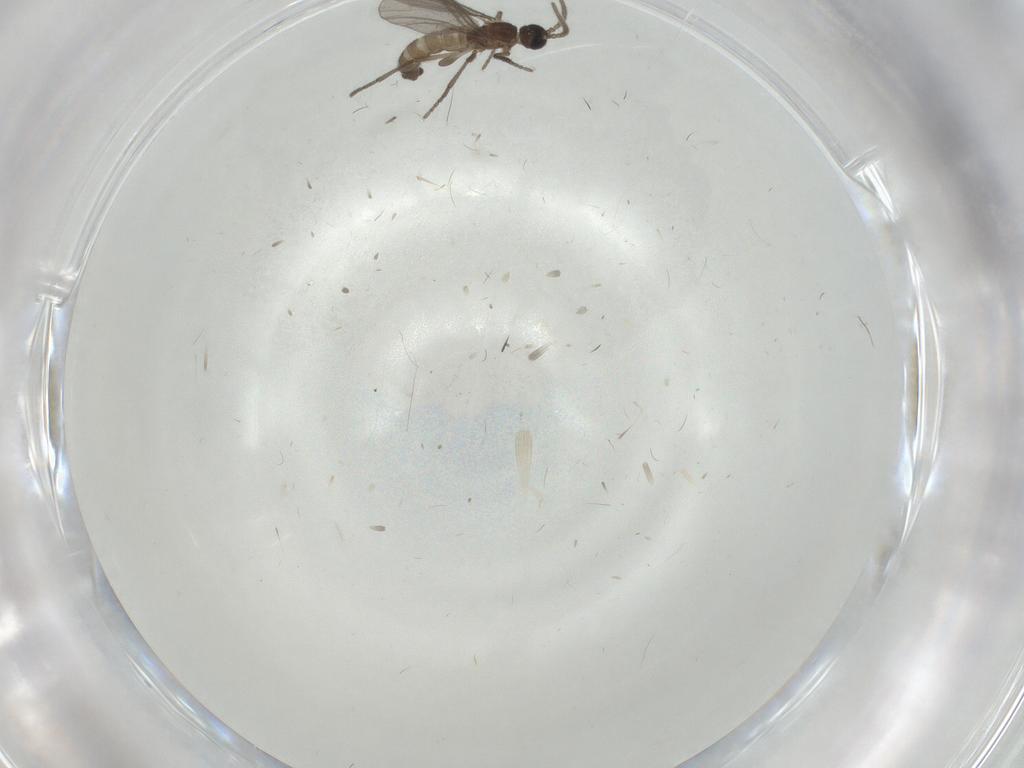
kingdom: Animalia
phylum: Arthropoda
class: Insecta
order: Diptera
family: Sciaridae
